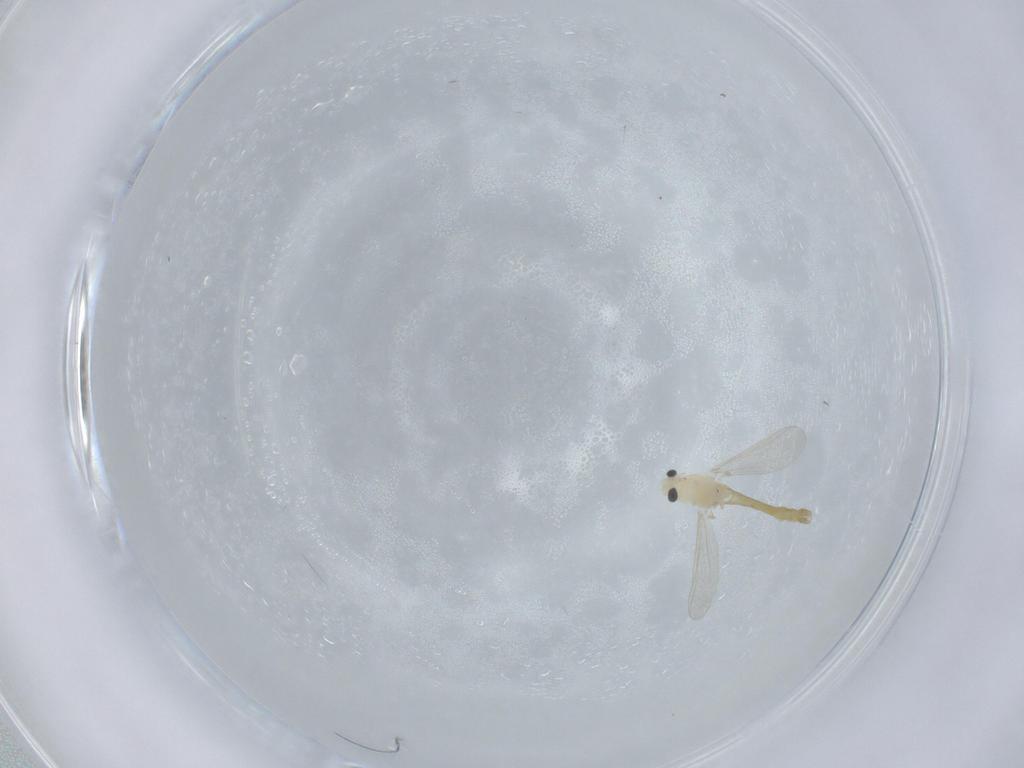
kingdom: Animalia
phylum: Arthropoda
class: Insecta
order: Diptera
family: Chironomidae
